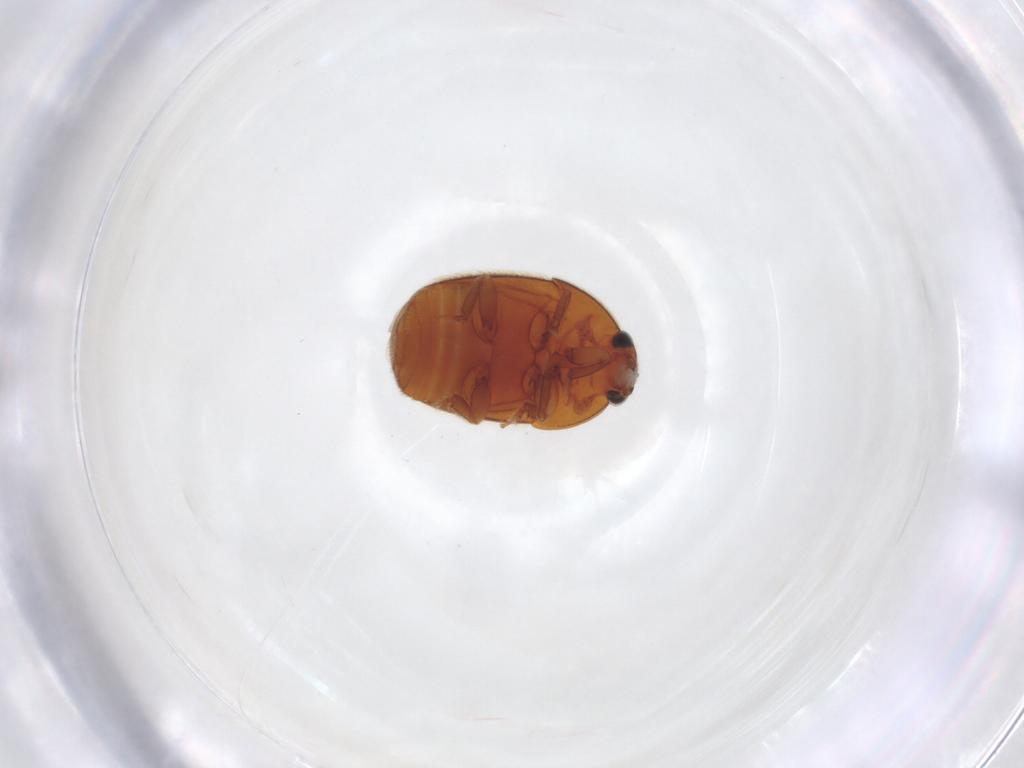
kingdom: Animalia
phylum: Arthropoda
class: Insecta
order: Coleoptera
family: Nitidulidae
